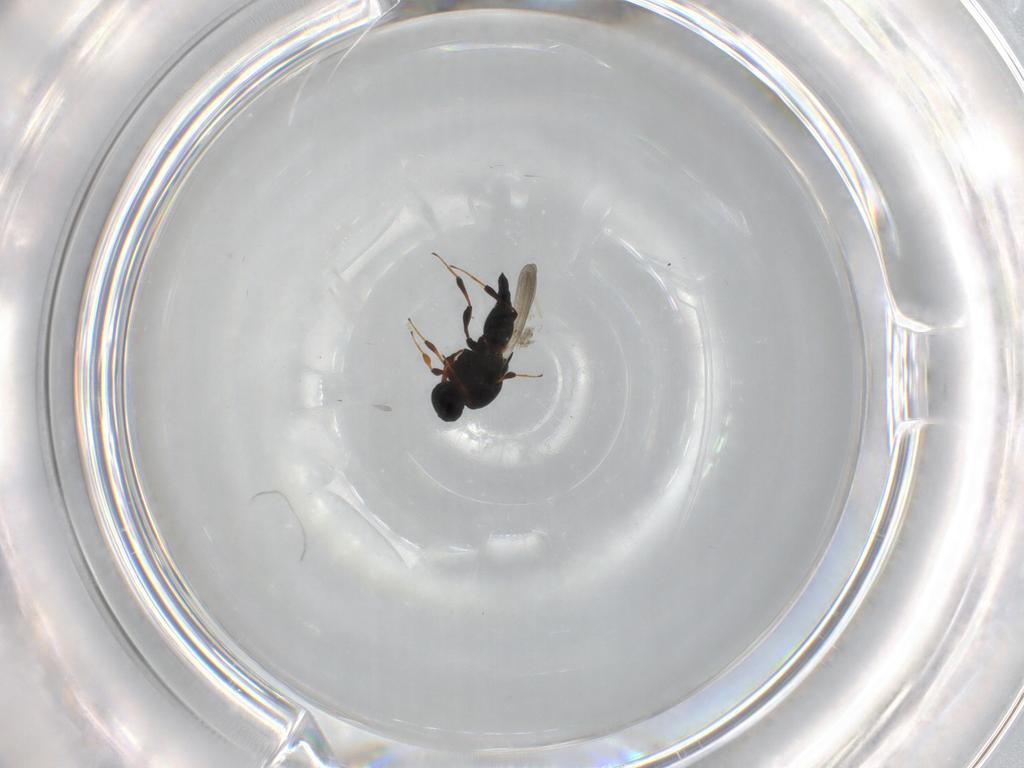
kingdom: Animalia
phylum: Arthropoda
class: Insecta
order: Hymenoptera
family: Platygastridae
